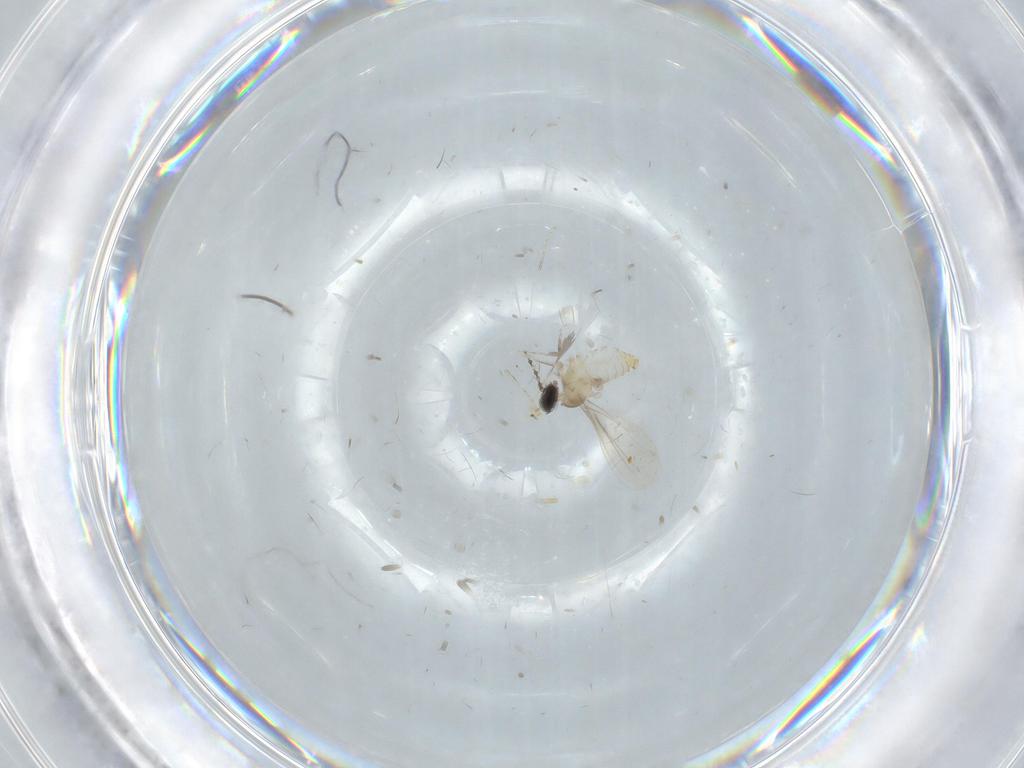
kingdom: Animalia
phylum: Arthropoda
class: Insecta
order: Diptera
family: Cecidomyiidae
